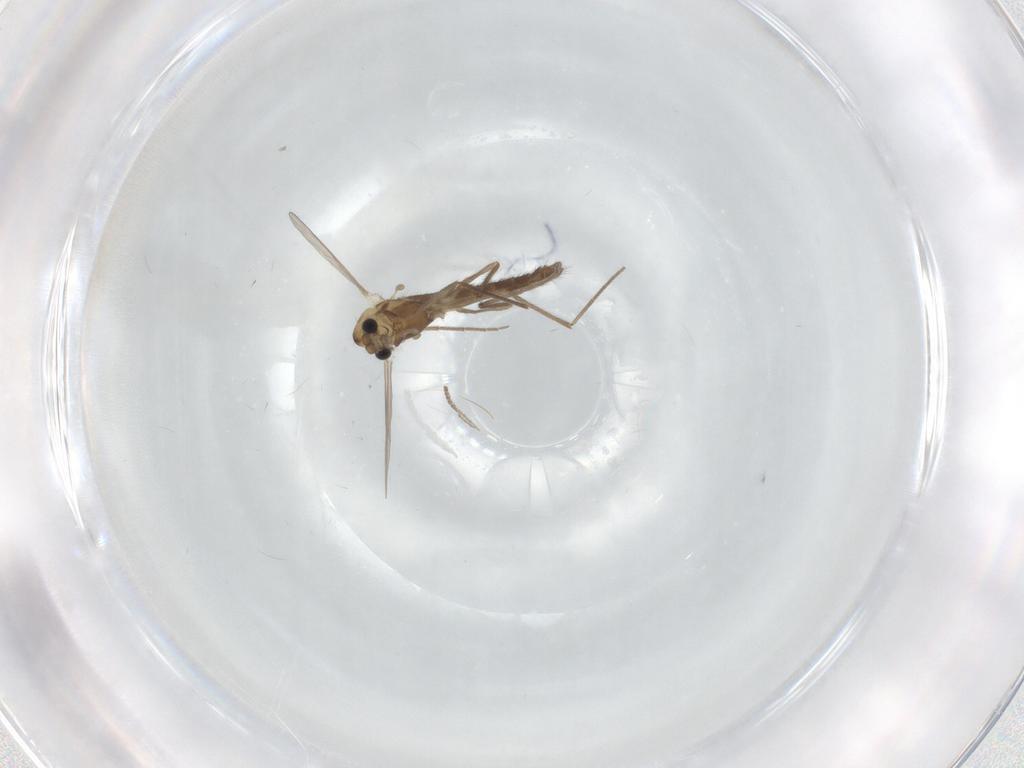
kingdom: Animalia
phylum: Arthropoda
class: Insecta
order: Diptera
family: Chironomidae
